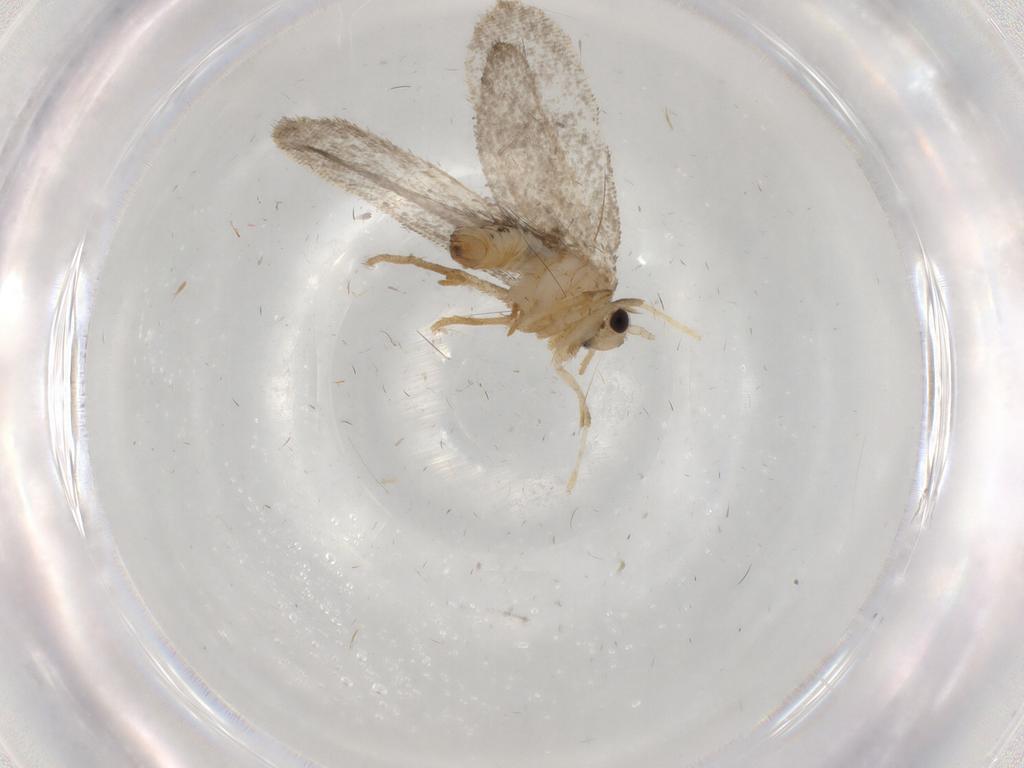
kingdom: Animalia
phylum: Arthropoda
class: Insecta
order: Lepidoptera
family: Psychidae
